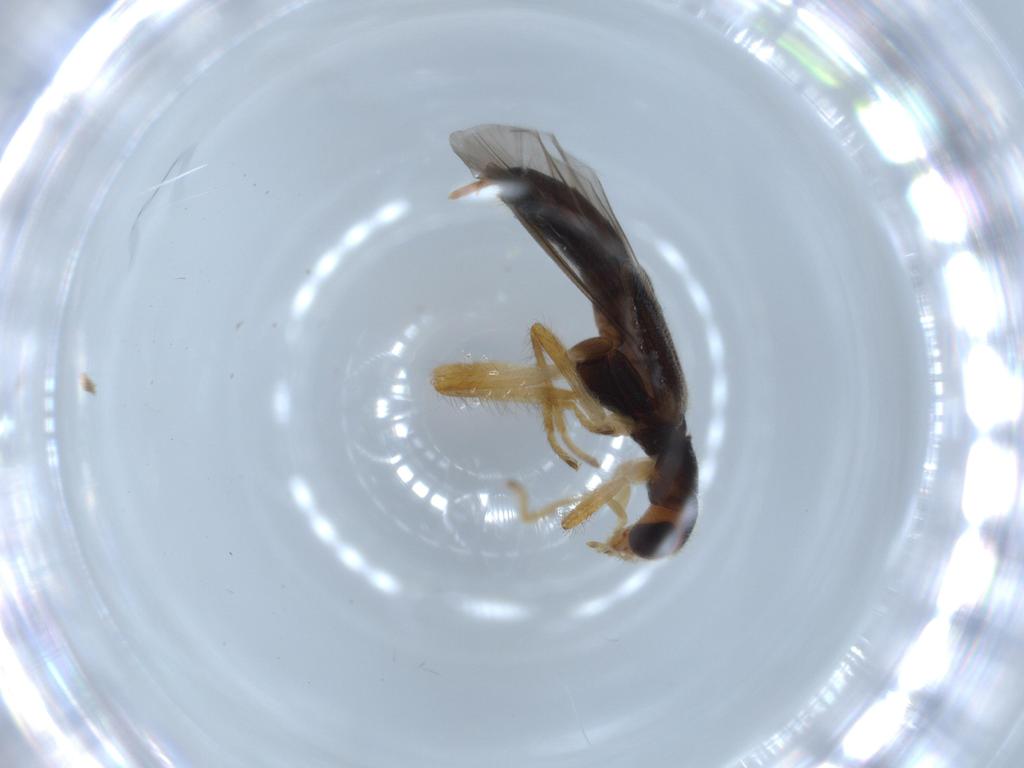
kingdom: Animalia
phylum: Arthropoda
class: Insecta
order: Coleoptera
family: Cleridae
